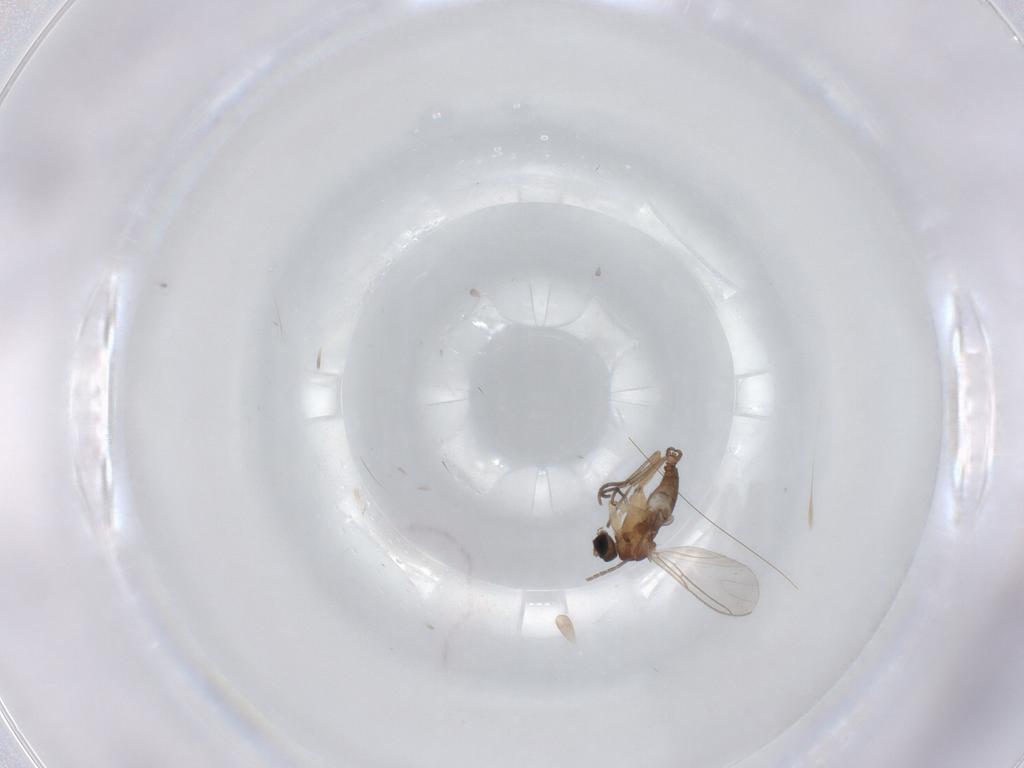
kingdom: Animalia
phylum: Arthropoda
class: Insecta
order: Diptera
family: Sciaridae
